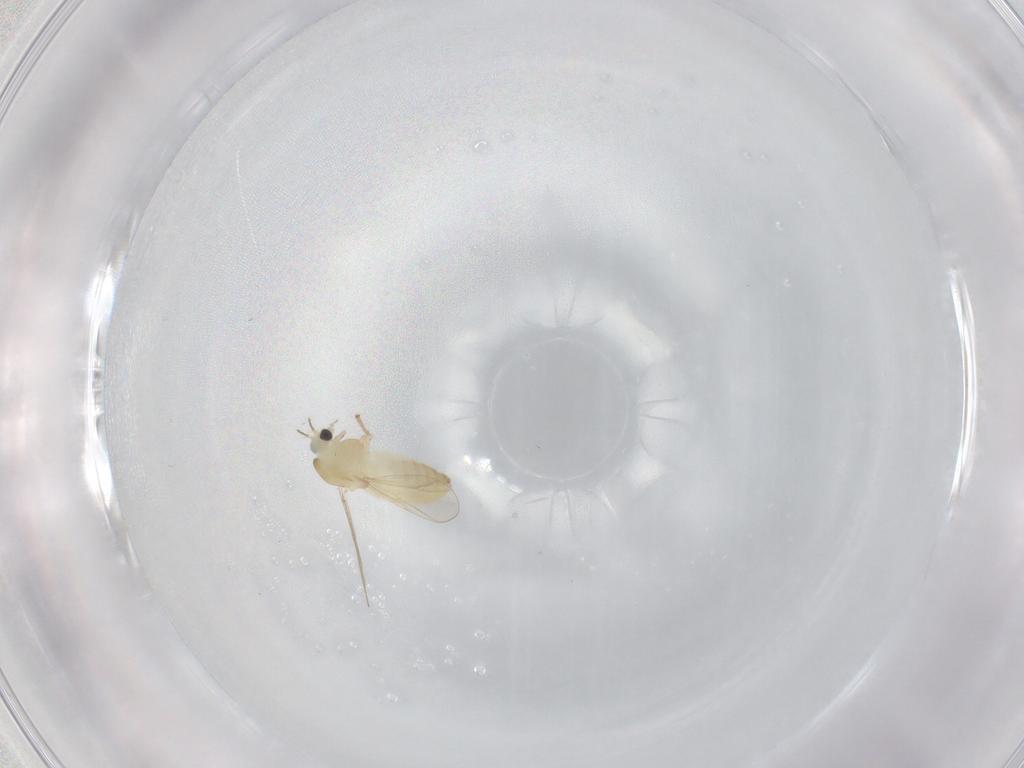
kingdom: Animalia
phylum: Arthropoda
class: Insecta
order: Diptera
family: Chironomidae
